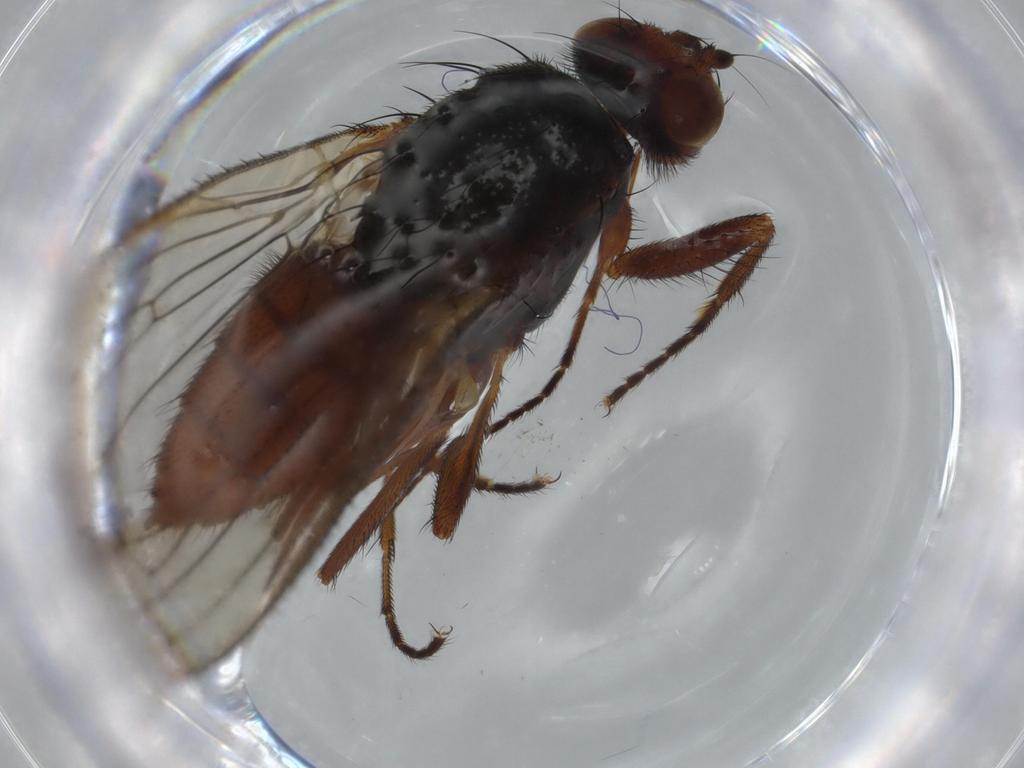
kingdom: Animalia
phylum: Arthropoda
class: Insecta
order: Diptera
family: Heleomyzidae
